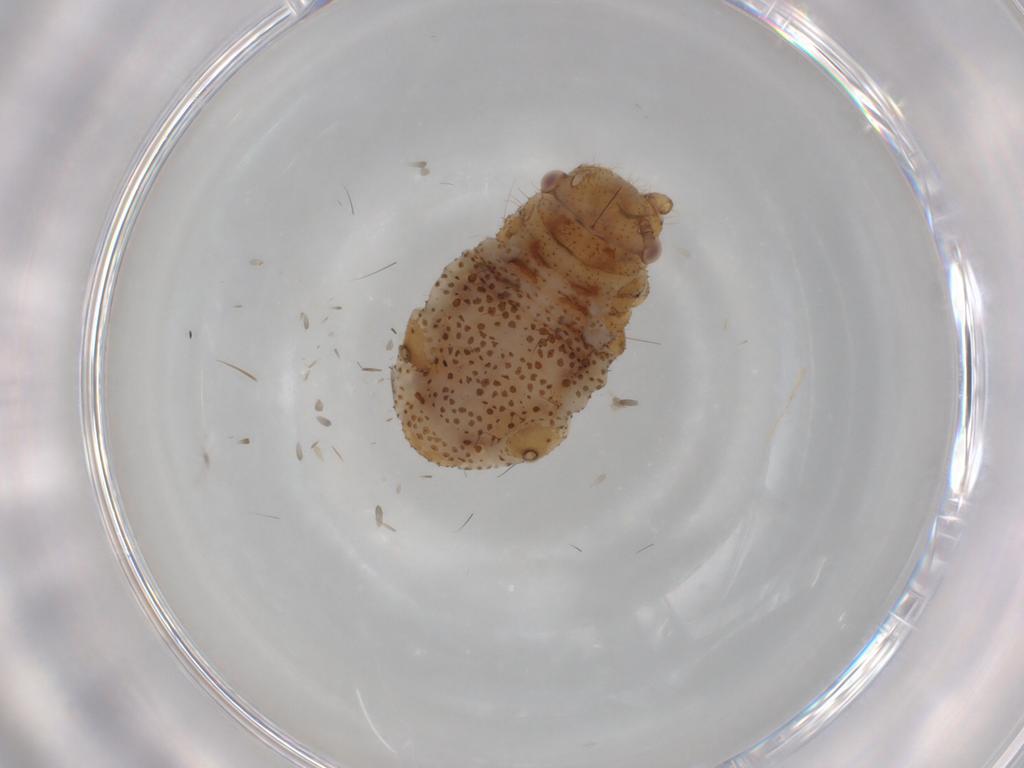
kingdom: Animalia
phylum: Arthropoda
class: Insecta
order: Hemiptera
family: Aphididae
